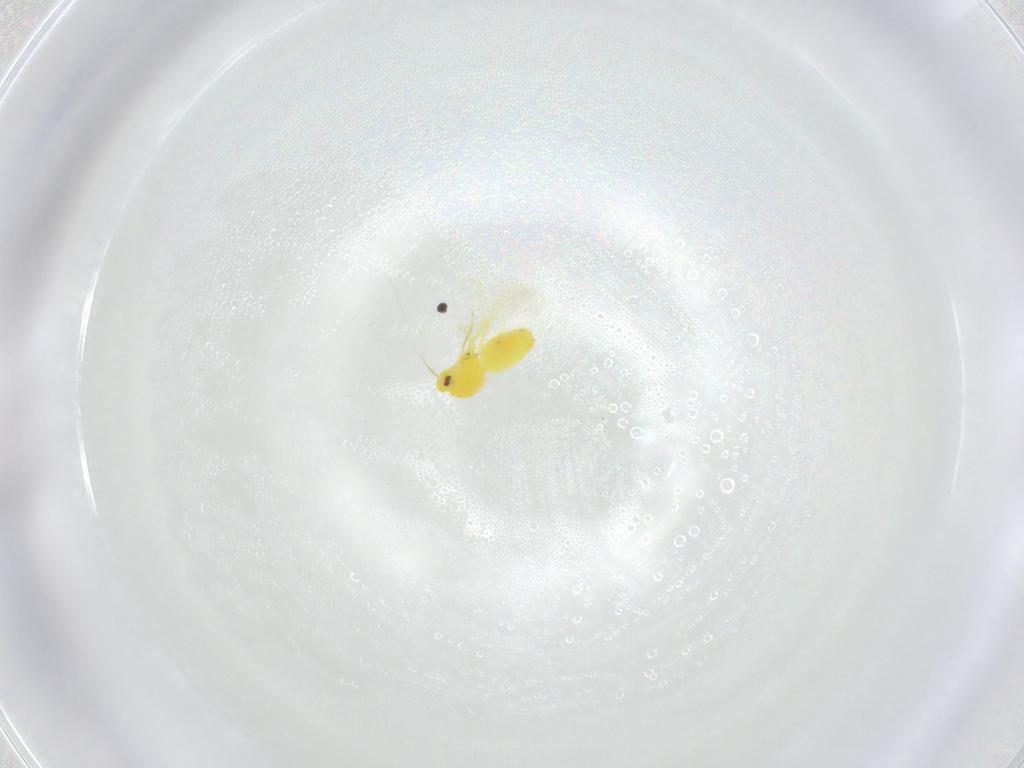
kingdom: Animalia
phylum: Arthropoda
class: Insecta
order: Hemiptera
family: Aleyrodidae
